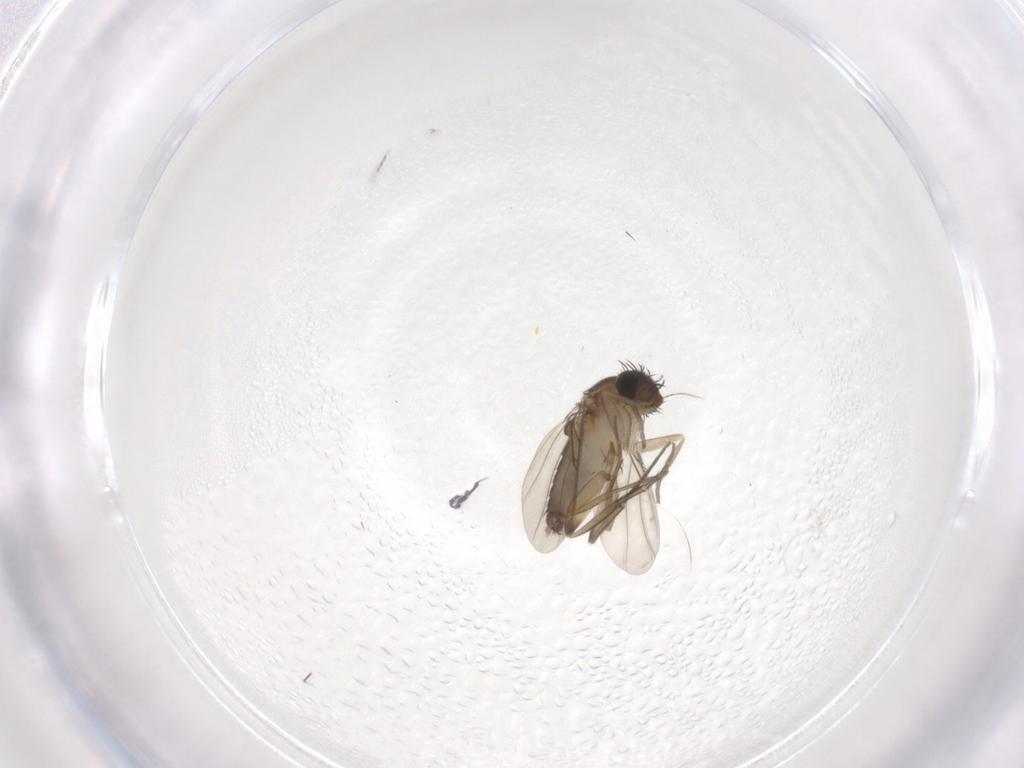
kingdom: Animalia
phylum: Arthropoda
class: Insecta
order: Diptera
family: Phoridae
